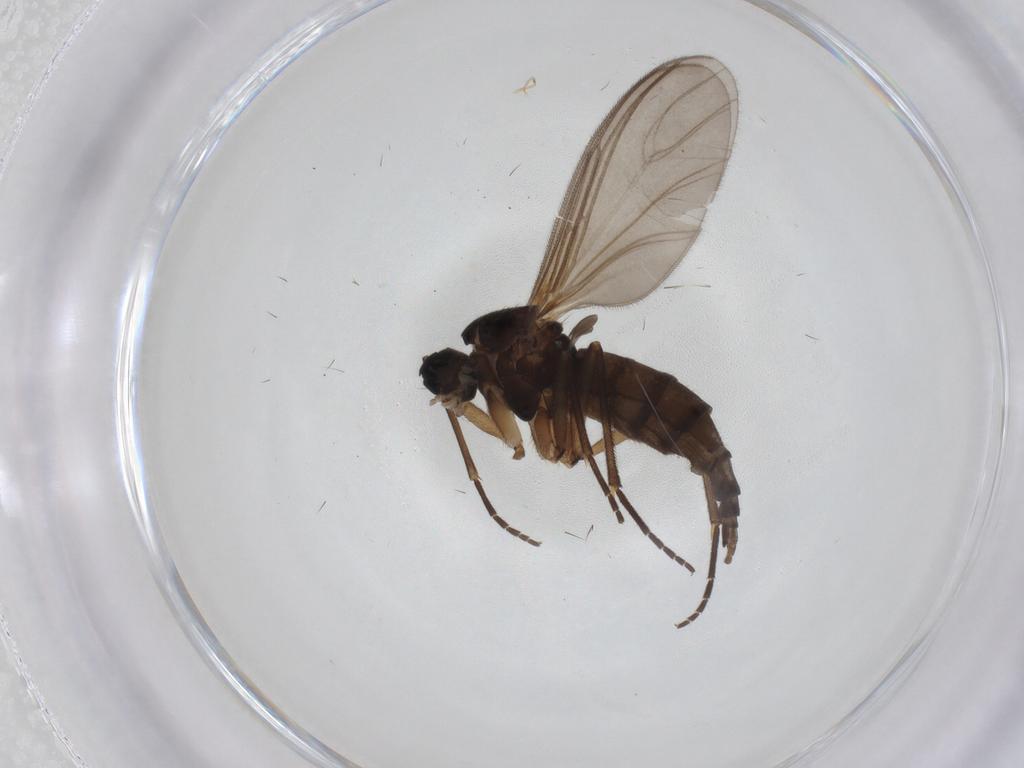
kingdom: Animalia
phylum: Arthropoda
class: Insecta
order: Diptera
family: Sciaridae
